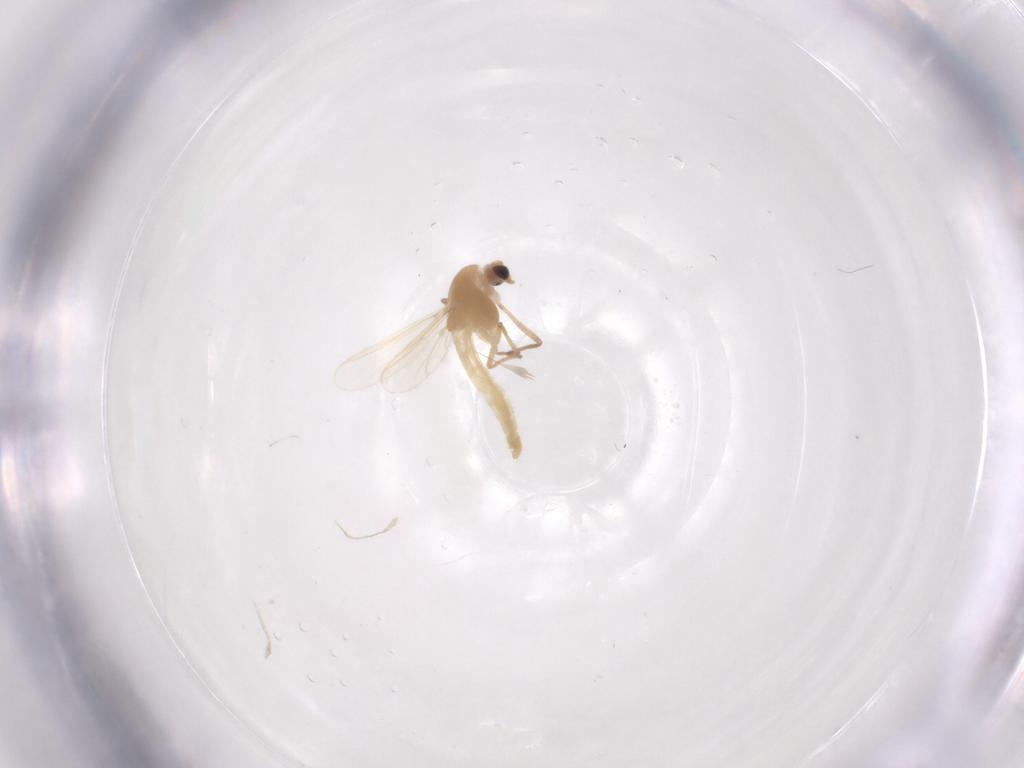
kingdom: Animalia
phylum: Arthropoda
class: Insecta
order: Diptera
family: Chironomidae
